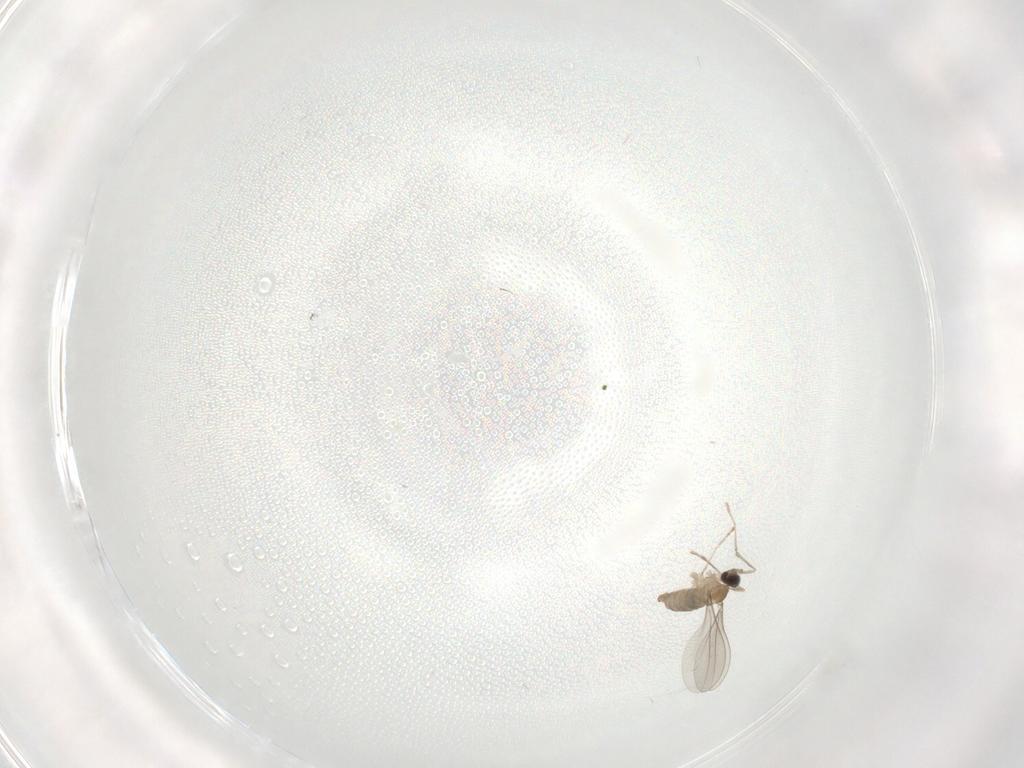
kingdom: Animalia
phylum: Arthropoda
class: Insecta
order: Diptera
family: Cecidomyiidae
